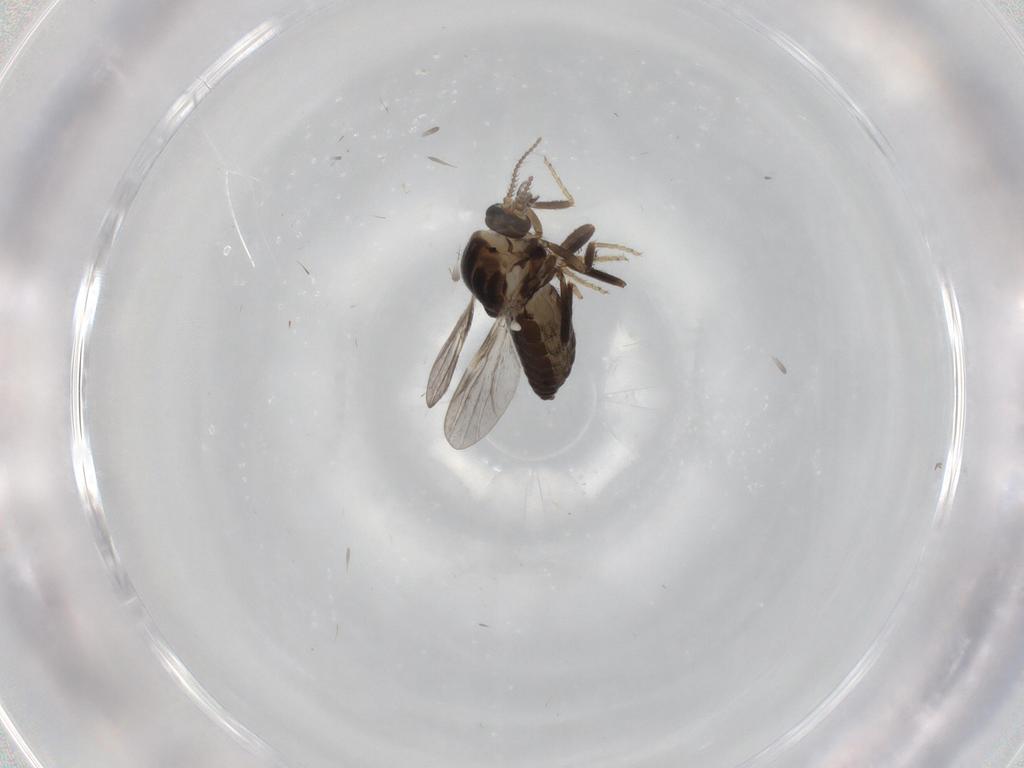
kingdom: Animalia
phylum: Arthropoda
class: Insecta
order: Diptera
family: Ceratopogonidae
